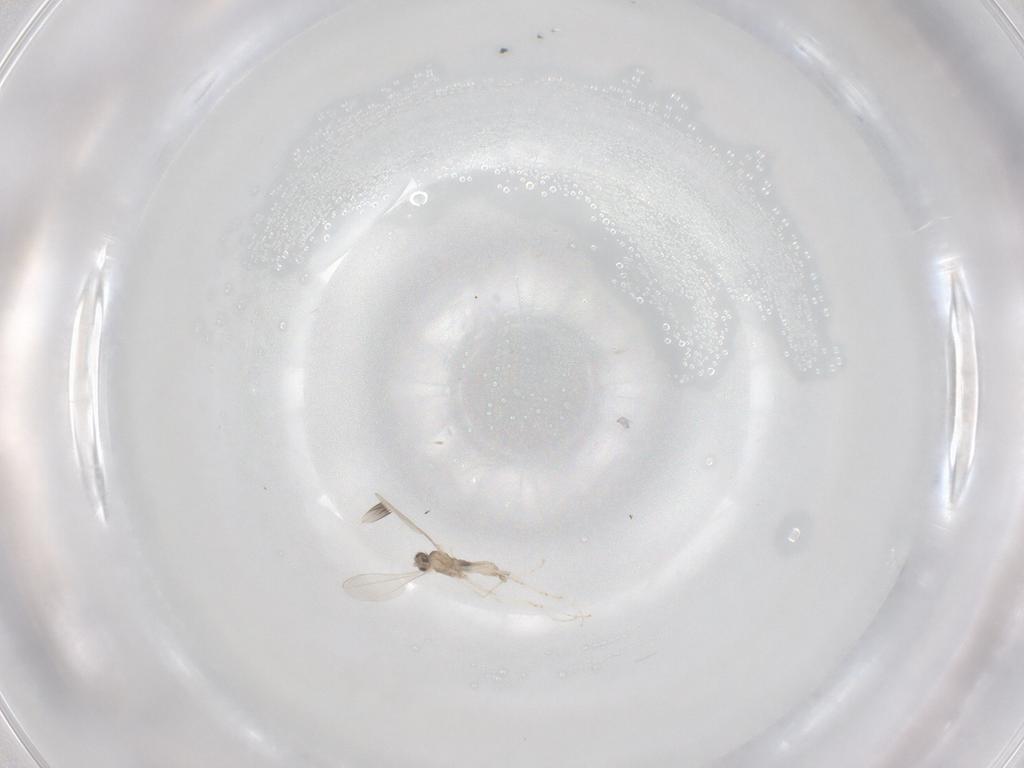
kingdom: Animalia
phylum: Arthropoda
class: Insecta
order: Diptera
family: Cecidomyiidae
